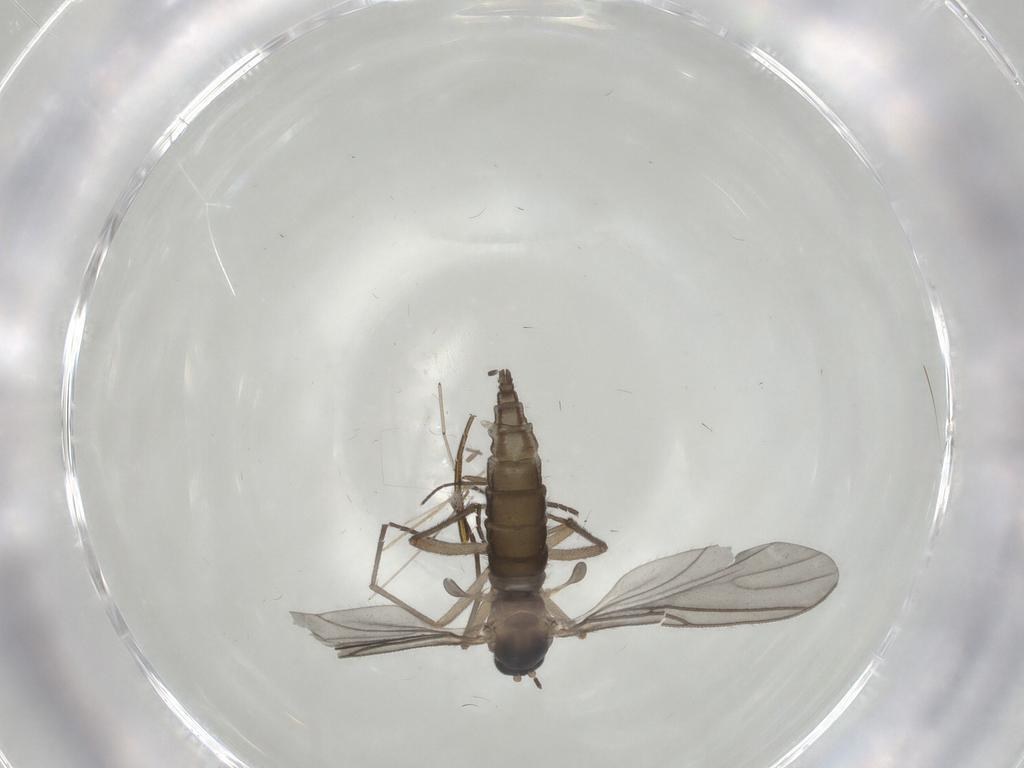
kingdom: Animalia
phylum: Arthropoda
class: Insecta
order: Diptera
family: Cecidomyiidae
